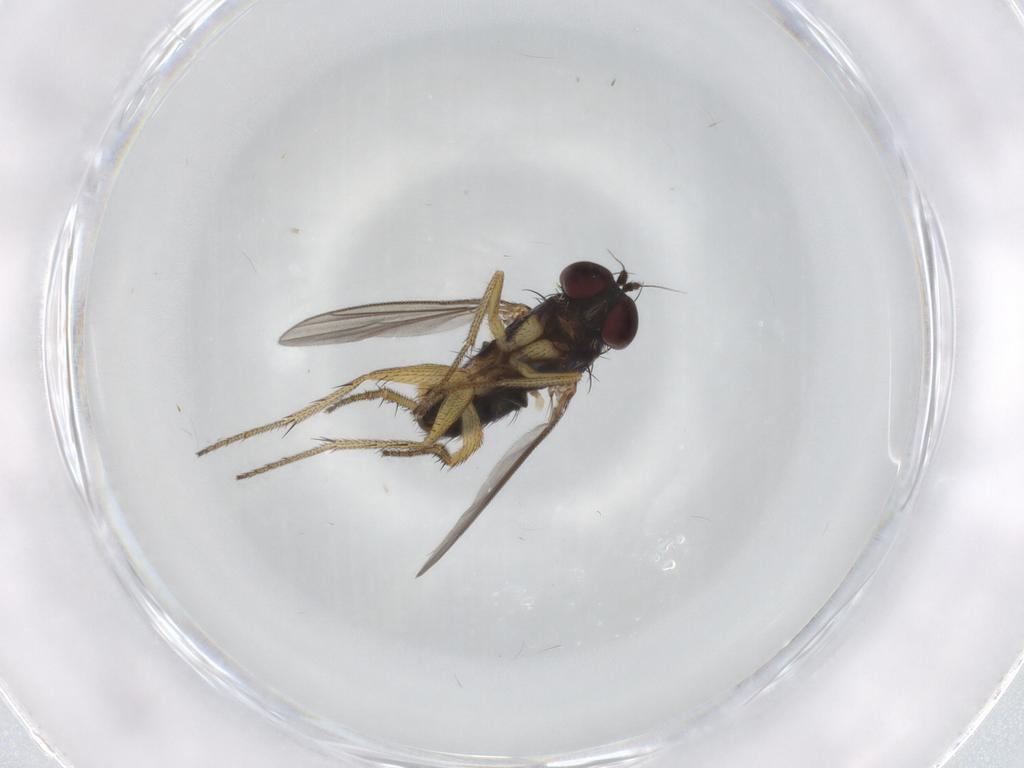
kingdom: Animalia
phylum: Arthropoda
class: Insecta
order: Diptera
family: Dolichopodidae
